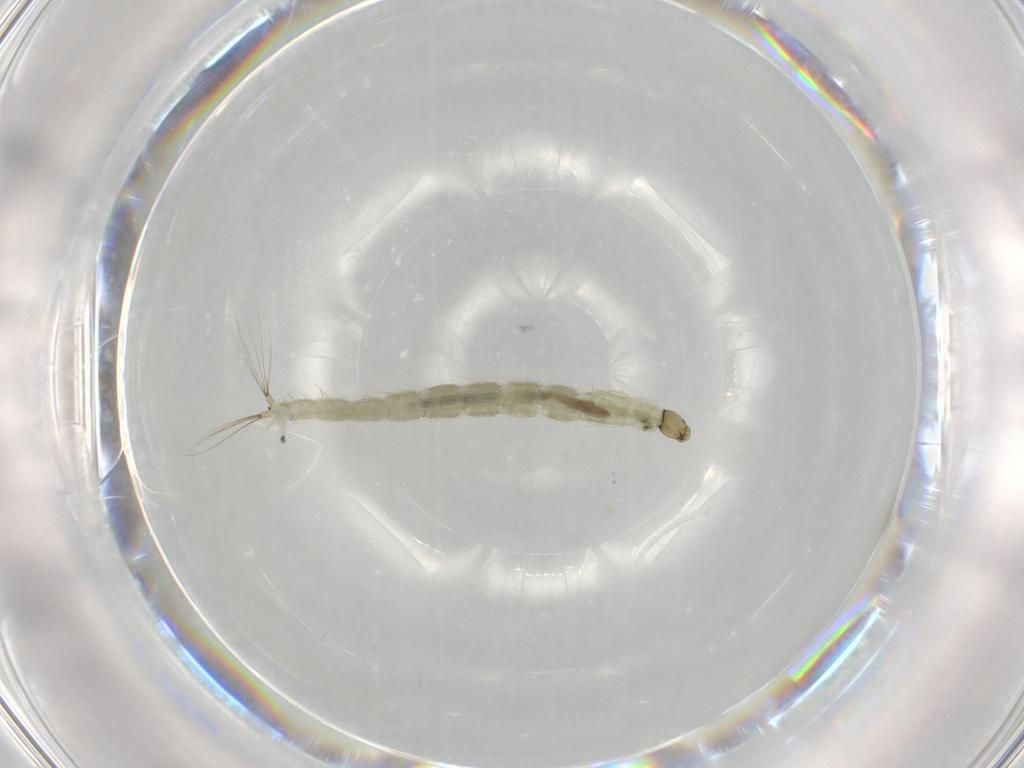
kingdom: Animalia
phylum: Arthropoda
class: Insecta
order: Diptera
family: Chironomidae
